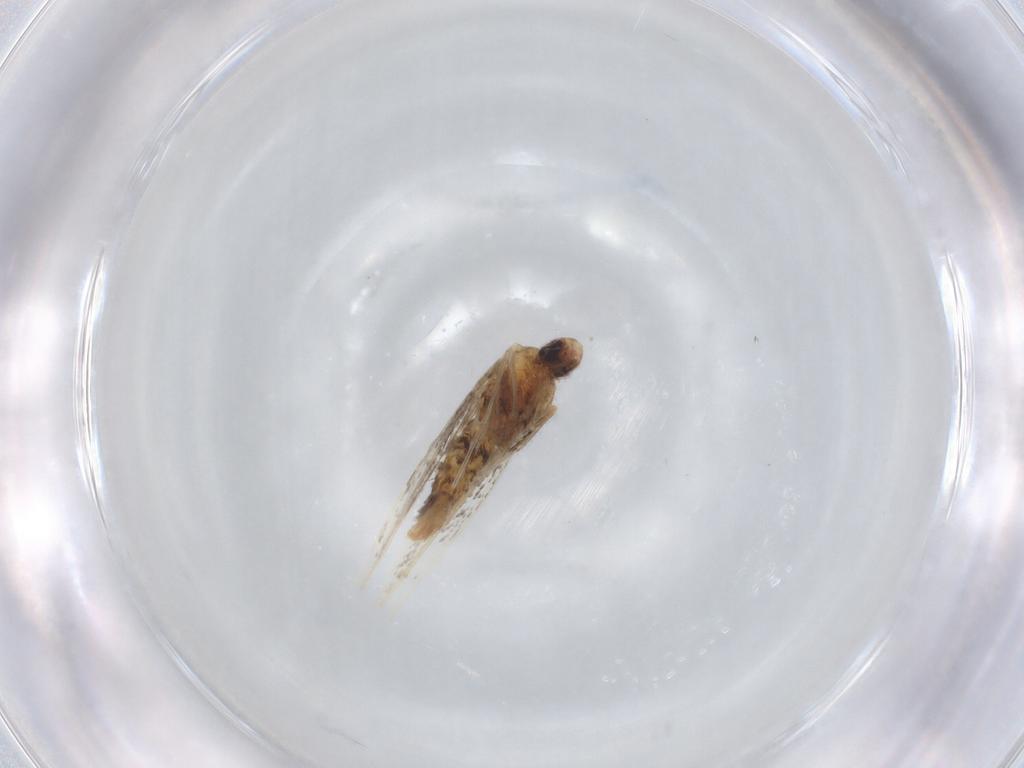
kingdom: Animalia
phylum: Arthropoda
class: Insecta
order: Lepidoptera
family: Gracillariidae
